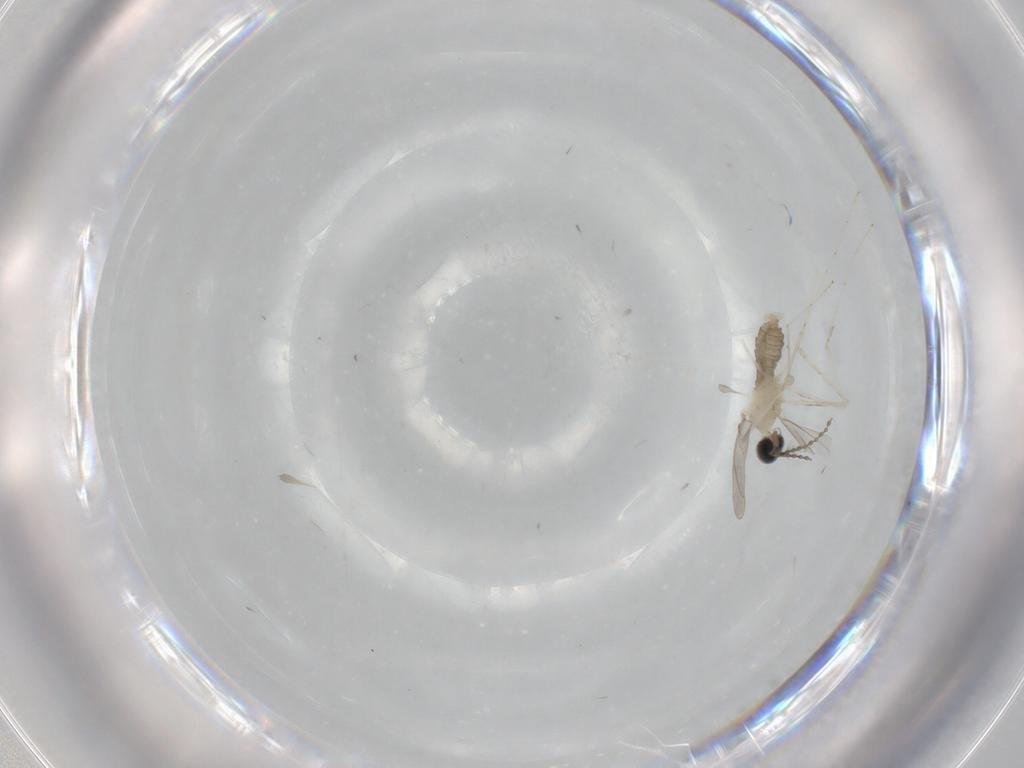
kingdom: Animalia
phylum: Arthropoda
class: Insecta
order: Diptera
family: Cecidomyiidae
